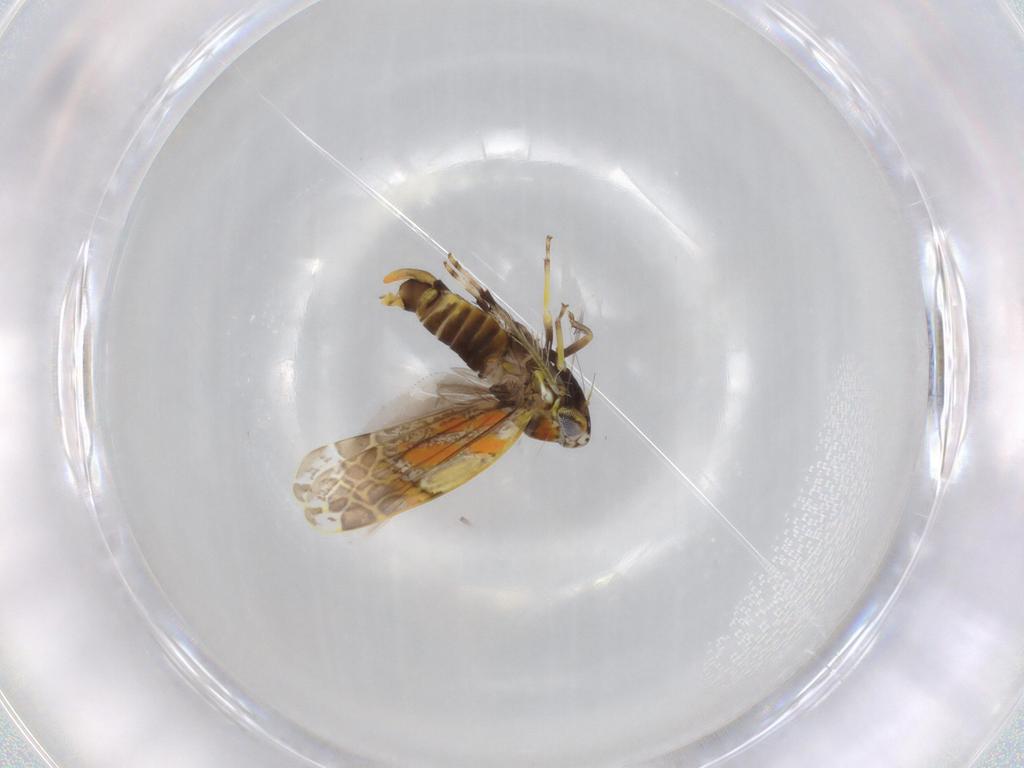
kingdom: Animalia
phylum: Arthropoda
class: Insecta
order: Hemiptera
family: Cicadellidae
